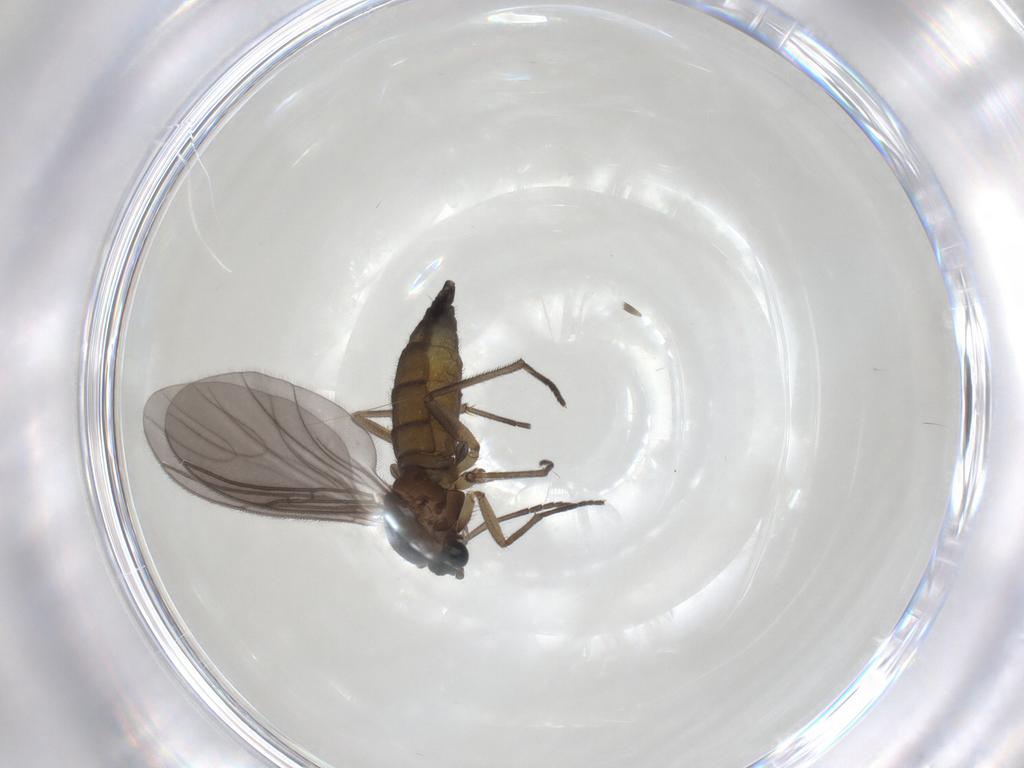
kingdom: Animalia
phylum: Arthropoda
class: Insecta
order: Diptera
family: Sciaridae
